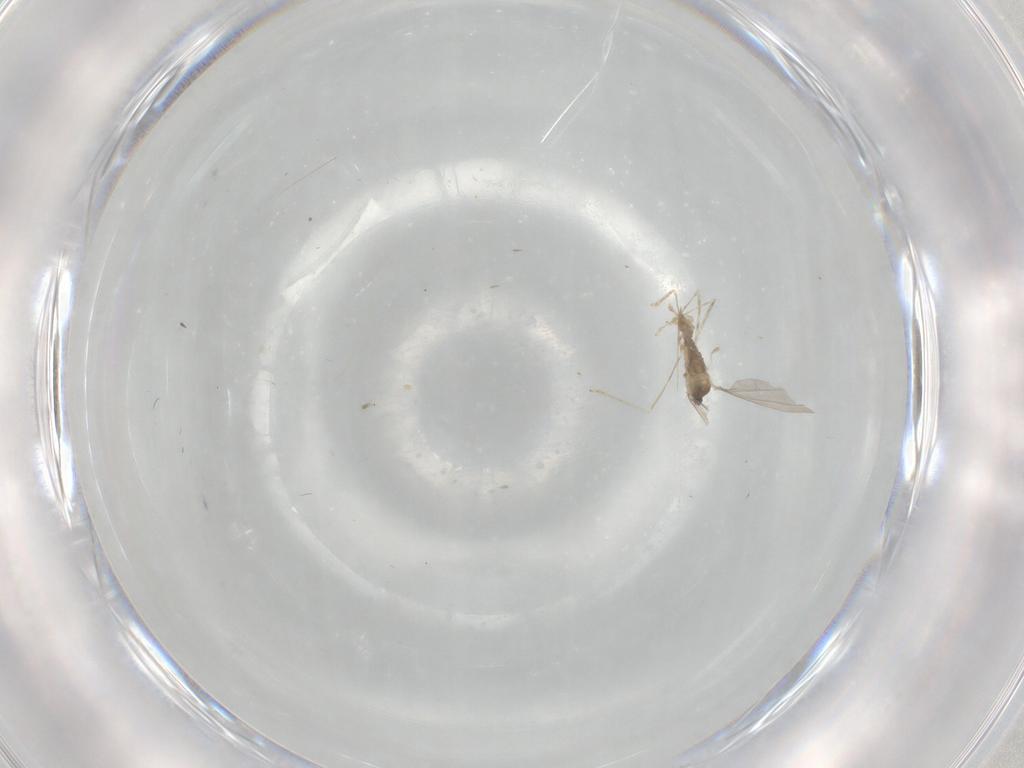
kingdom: Animalia
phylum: Arthropoda
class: Insecta
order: Diptera
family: Cecidomyiidae
